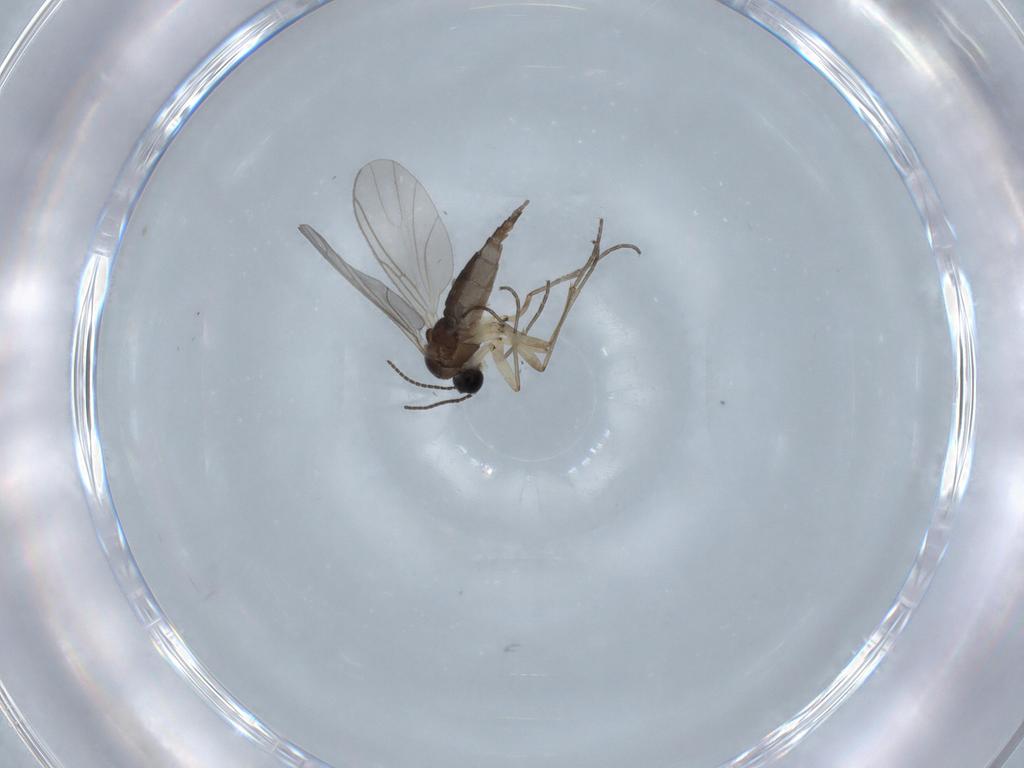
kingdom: Animalia
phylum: Arthropoda
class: Insecta
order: Diptera
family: Sciaridae
